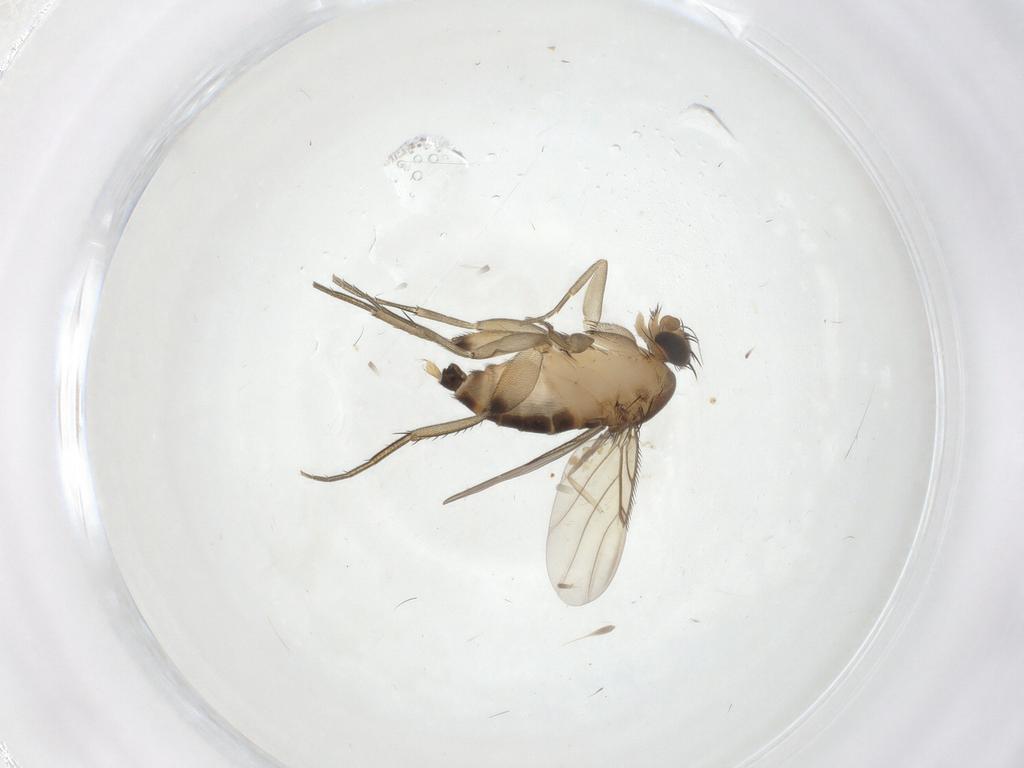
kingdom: Animalia
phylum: Arthropoda
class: Insecta
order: Diptera
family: Phoridae
